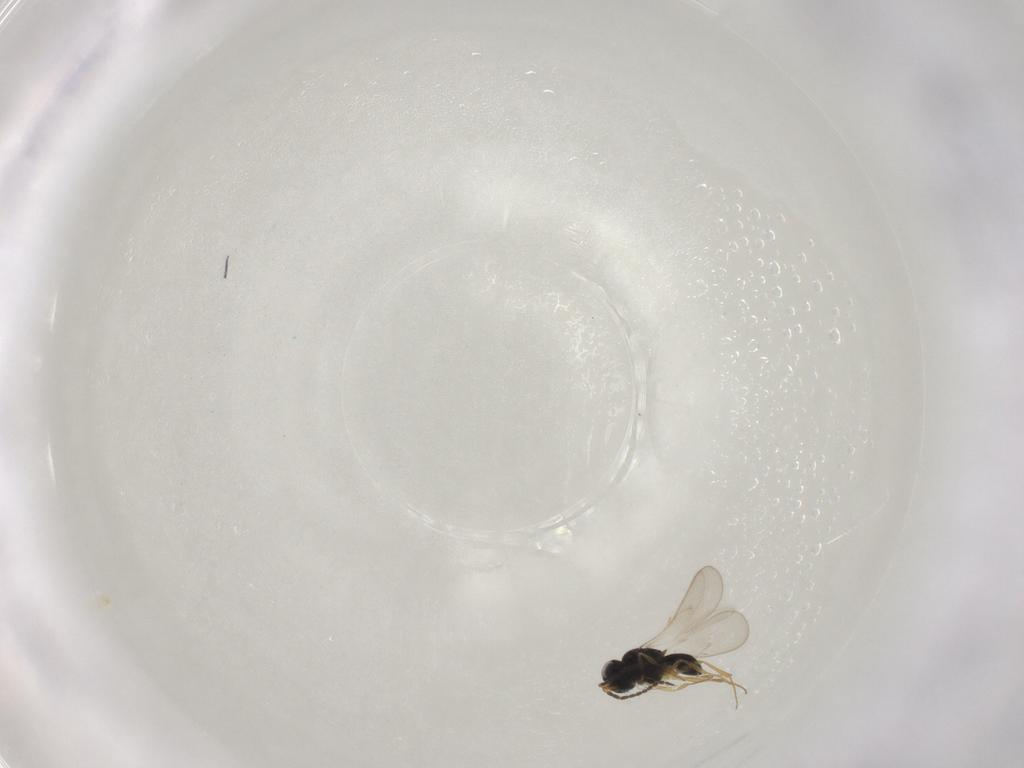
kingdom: Animalia
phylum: Arthropoda
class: Insecta
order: Hymenoptera
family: Scelionidae
